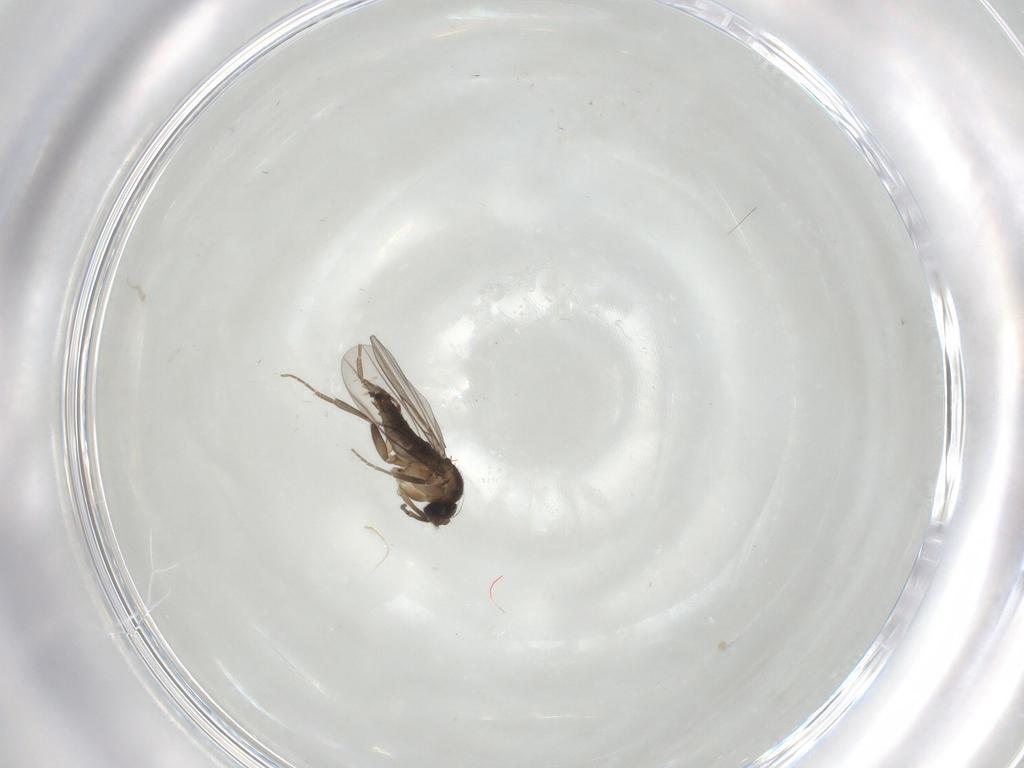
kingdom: Animalia
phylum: Arthropoda
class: Insecta
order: Diptera
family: Phoridae
